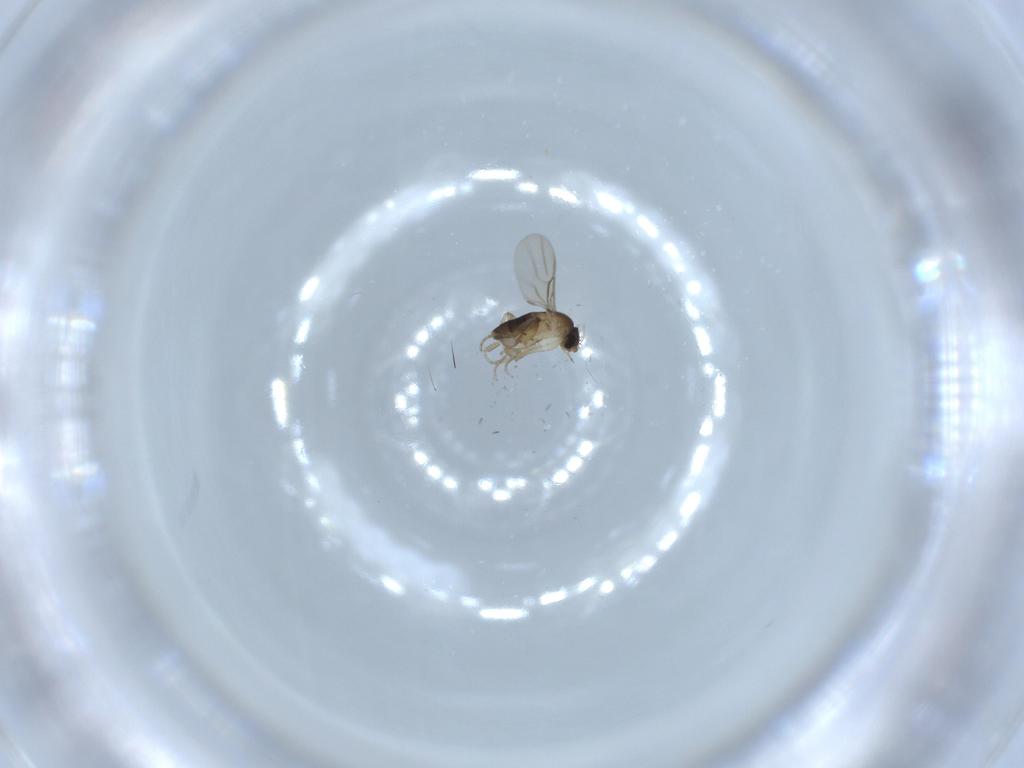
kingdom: Animalia
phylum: Arthropoda
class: Insecta
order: Diptera
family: Phoridae
